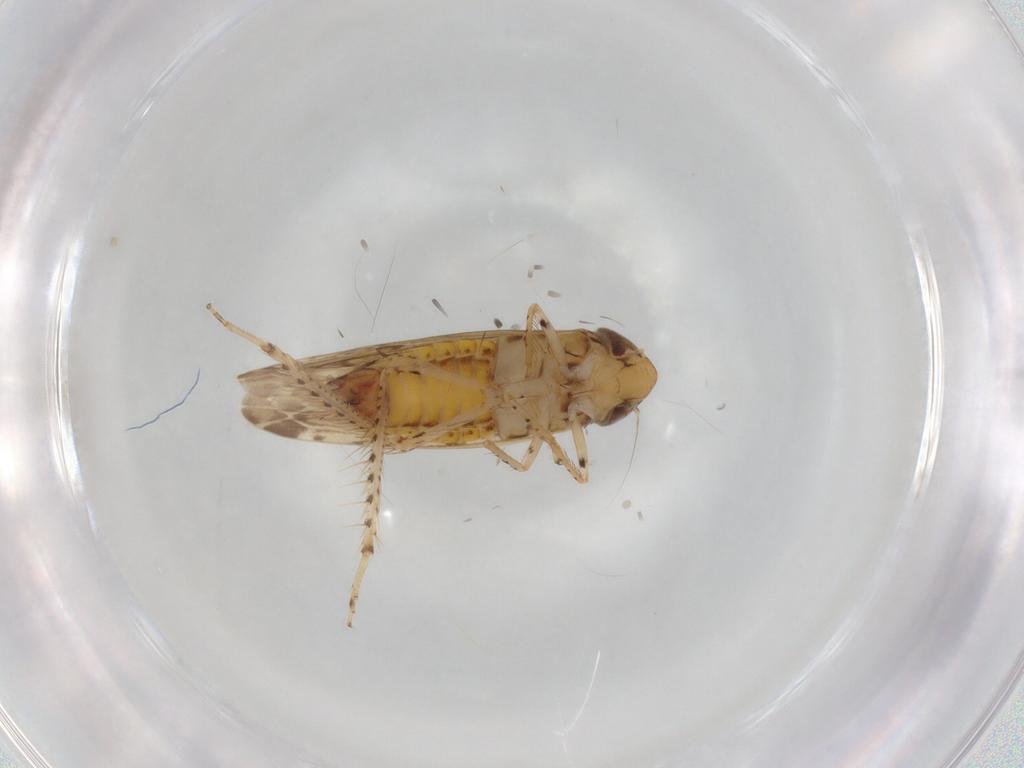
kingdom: Animalia
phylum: Arthropoda
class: Insecta
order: Hemiptera
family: Cicadellidae
